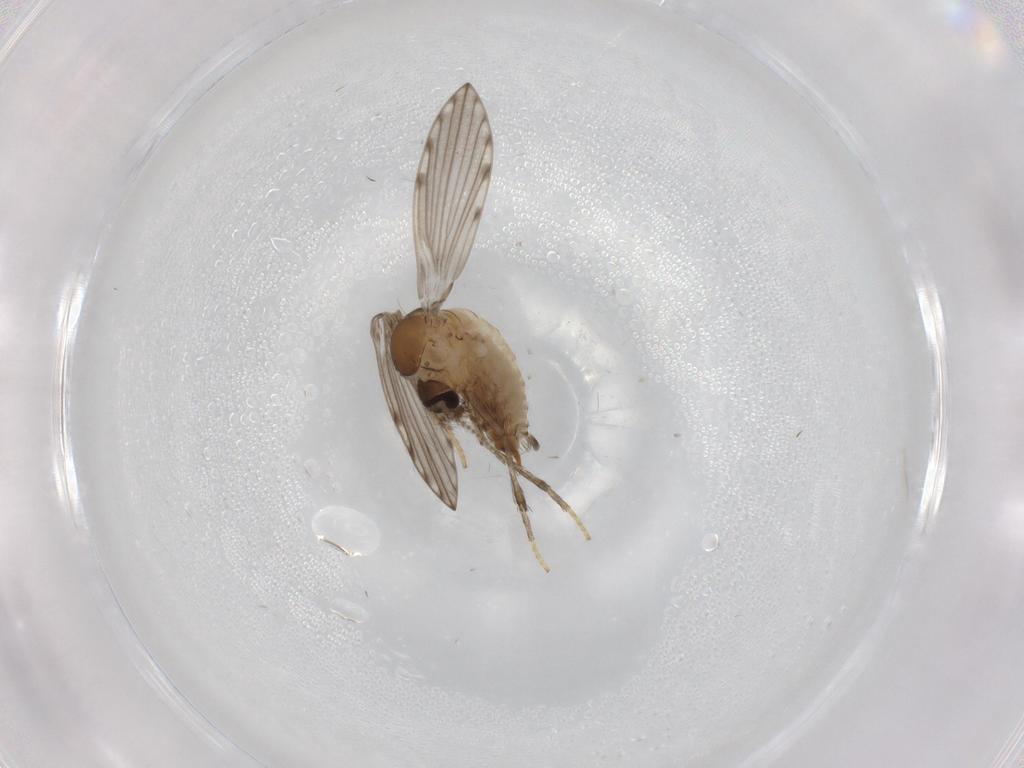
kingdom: Animalia
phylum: Arthropoda
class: Insecta
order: Diptera
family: Psychodidae
